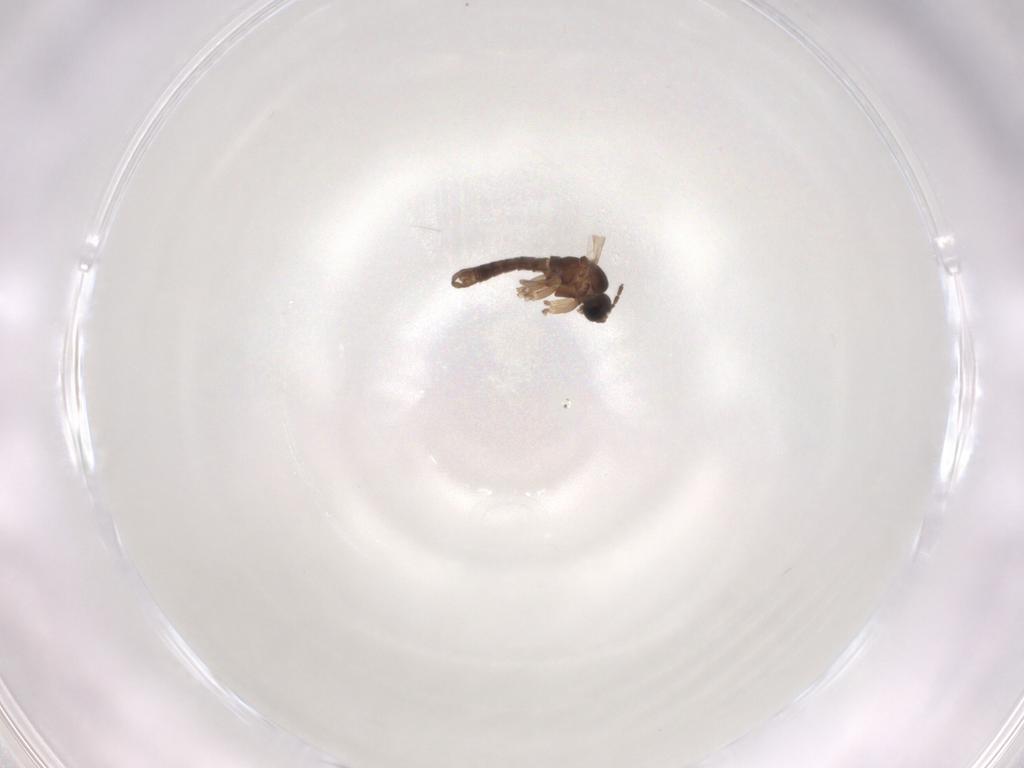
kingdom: Animalia
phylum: Arthropoda
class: Insecta
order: Diptera
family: Sciaridae
